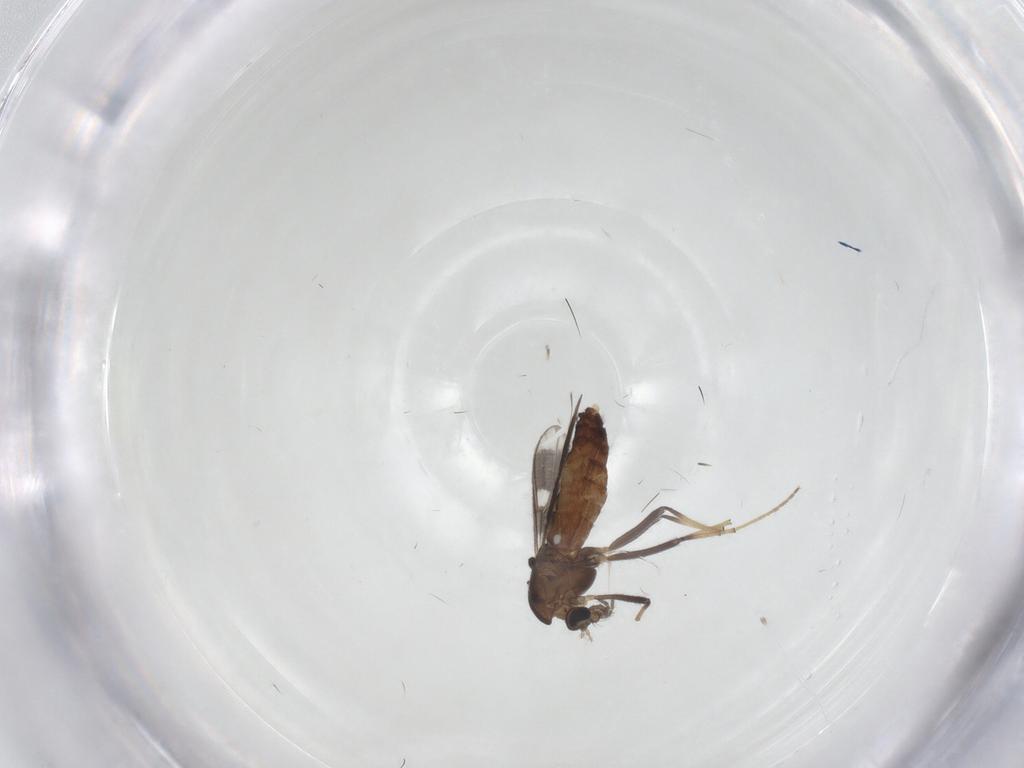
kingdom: Animalia
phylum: Arthropoda
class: Insecta
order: Diptera
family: Chironomidae
